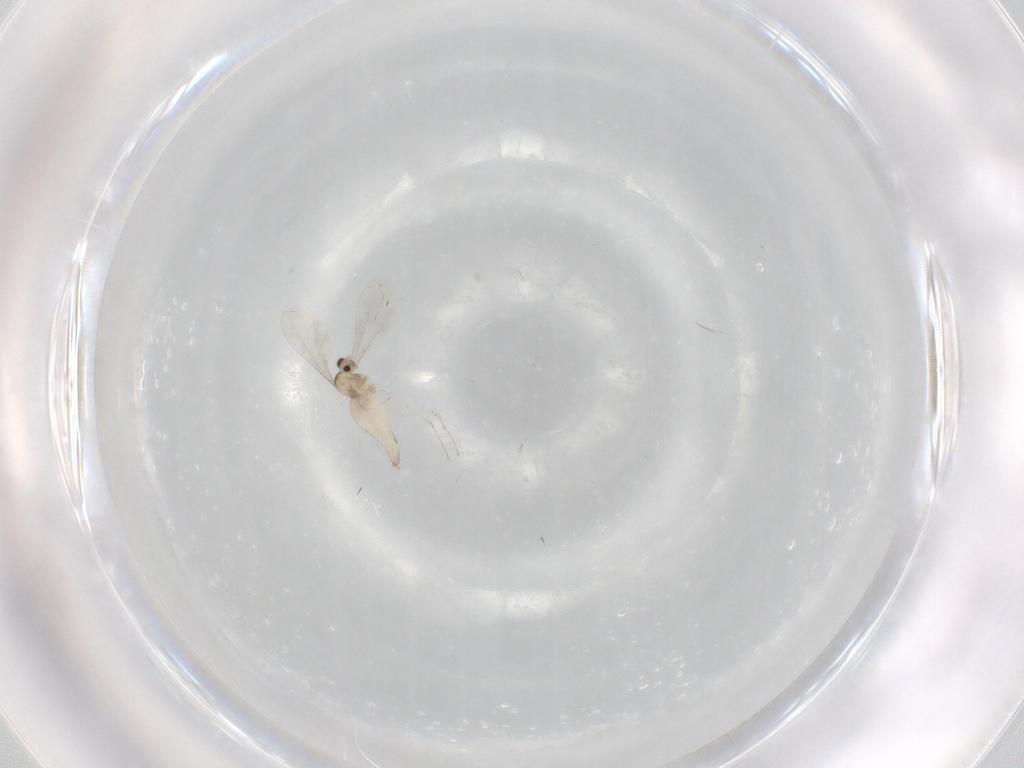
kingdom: Animalia
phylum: Arthropoda
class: Insecta
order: Diptera
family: Cecidomyiidae
